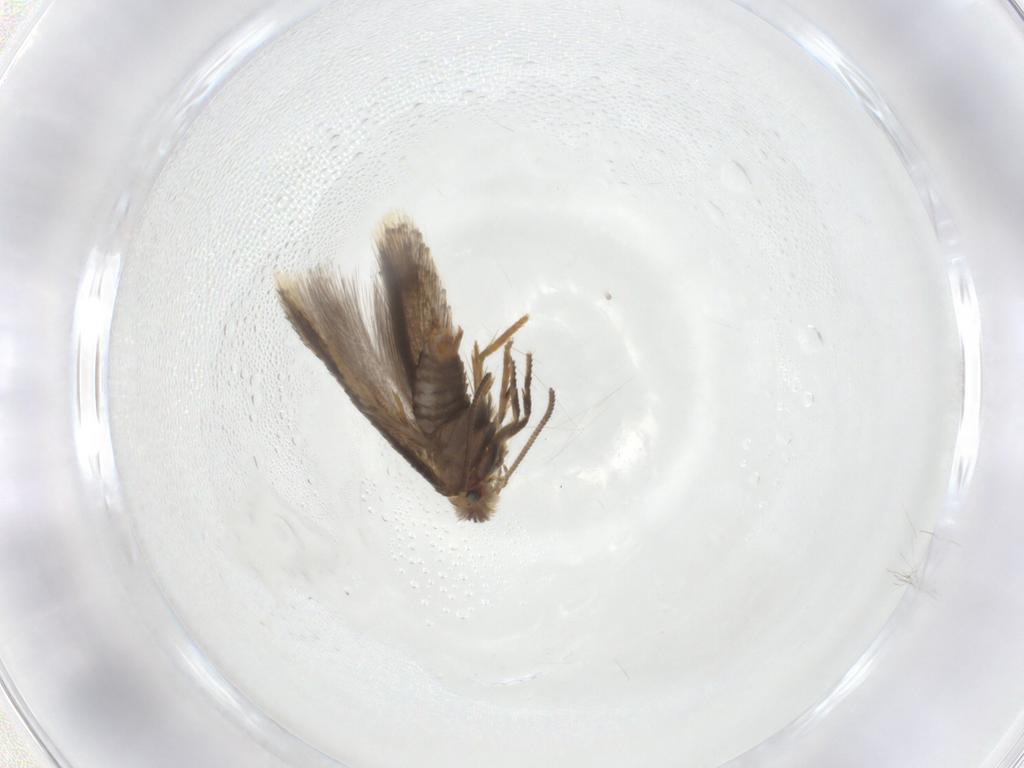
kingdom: Animalia
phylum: Arthropoda
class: Insecta
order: Lepidoptera
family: Nepticulidae
